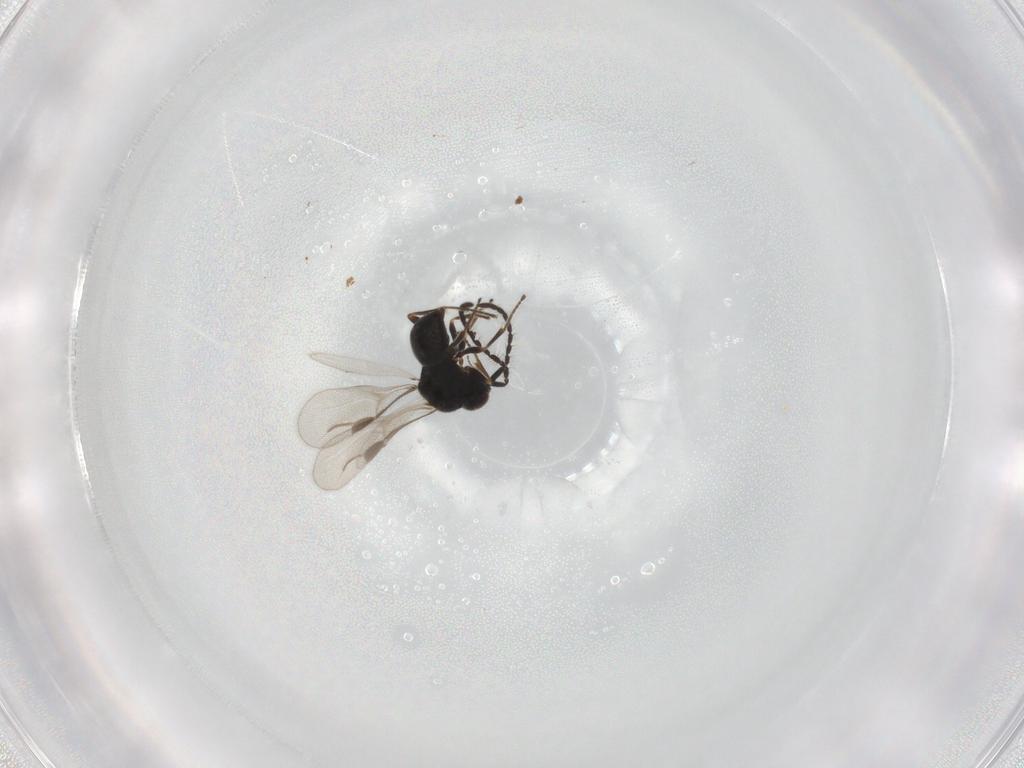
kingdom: Animalia
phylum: Arthropoda
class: Insecta
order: Hymenoptera
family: Megaspilidae
